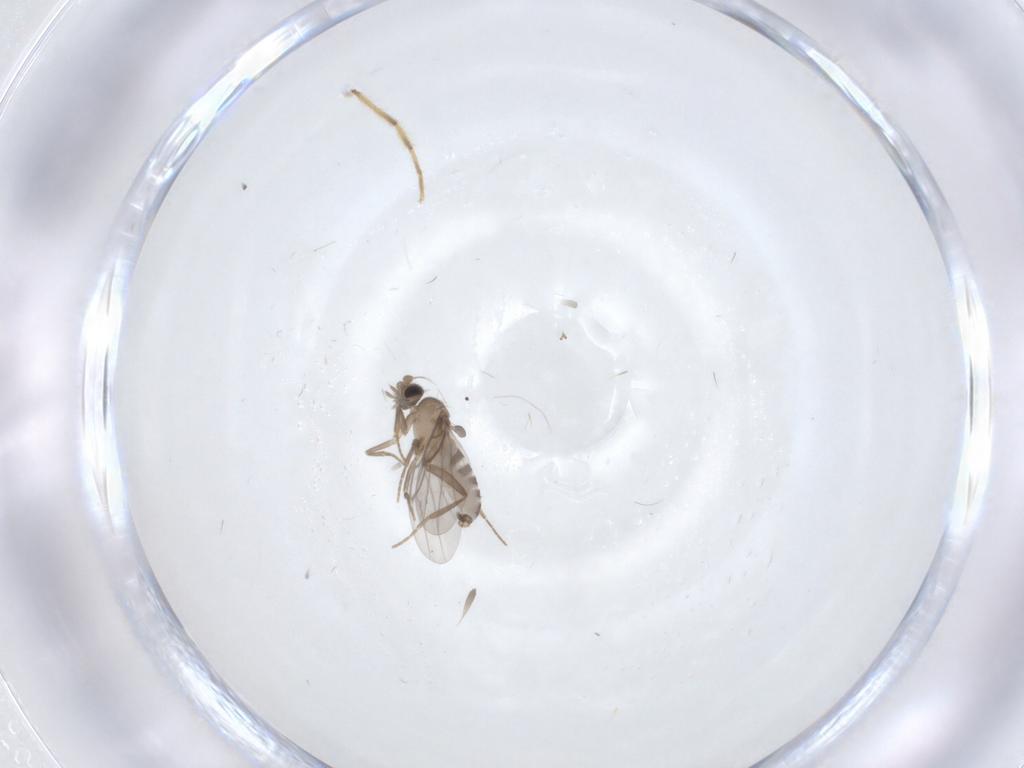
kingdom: Animalia
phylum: Arthropoda
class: Insecta
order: Diptera
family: Chironomidae
